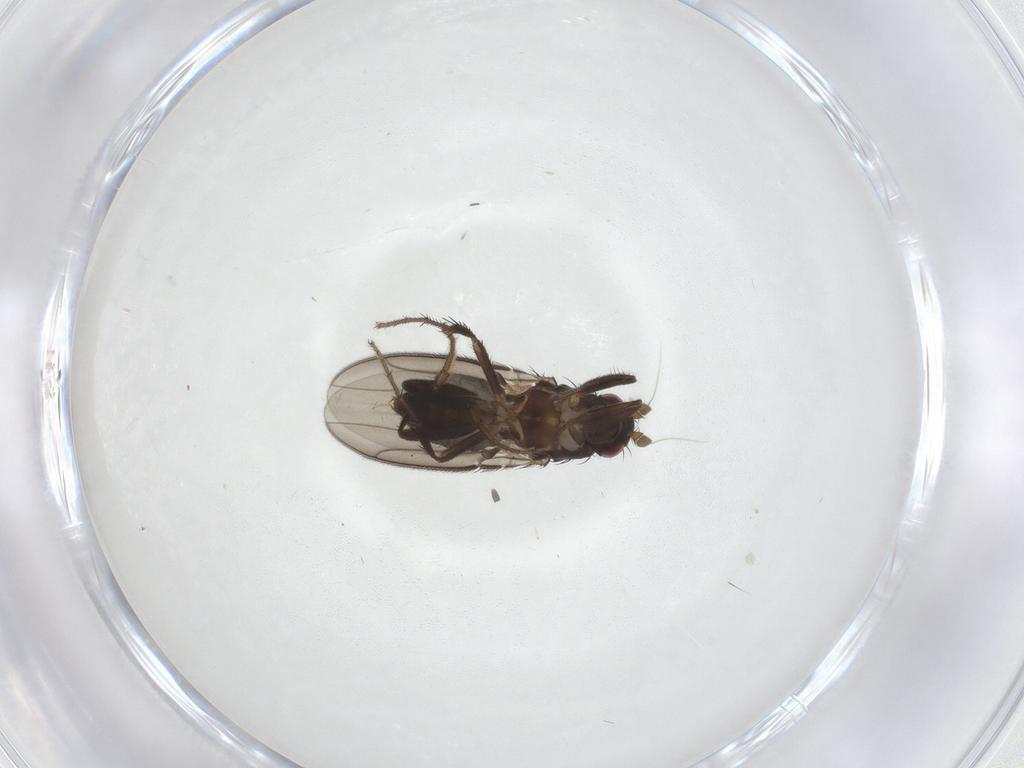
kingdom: Animalia
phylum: Arthropoda
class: Insecta
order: Diptera
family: Sphaeroceridae
